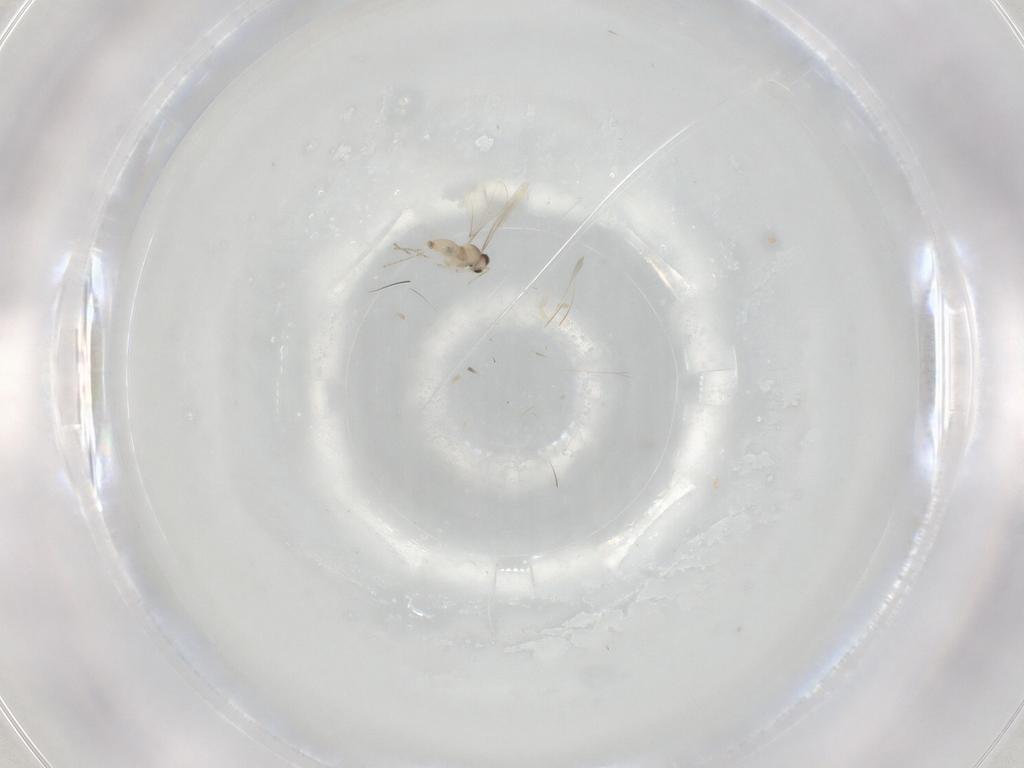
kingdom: Animalia
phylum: Arthropoda
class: Insecta
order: Diptera
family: Cecidomyiidae
